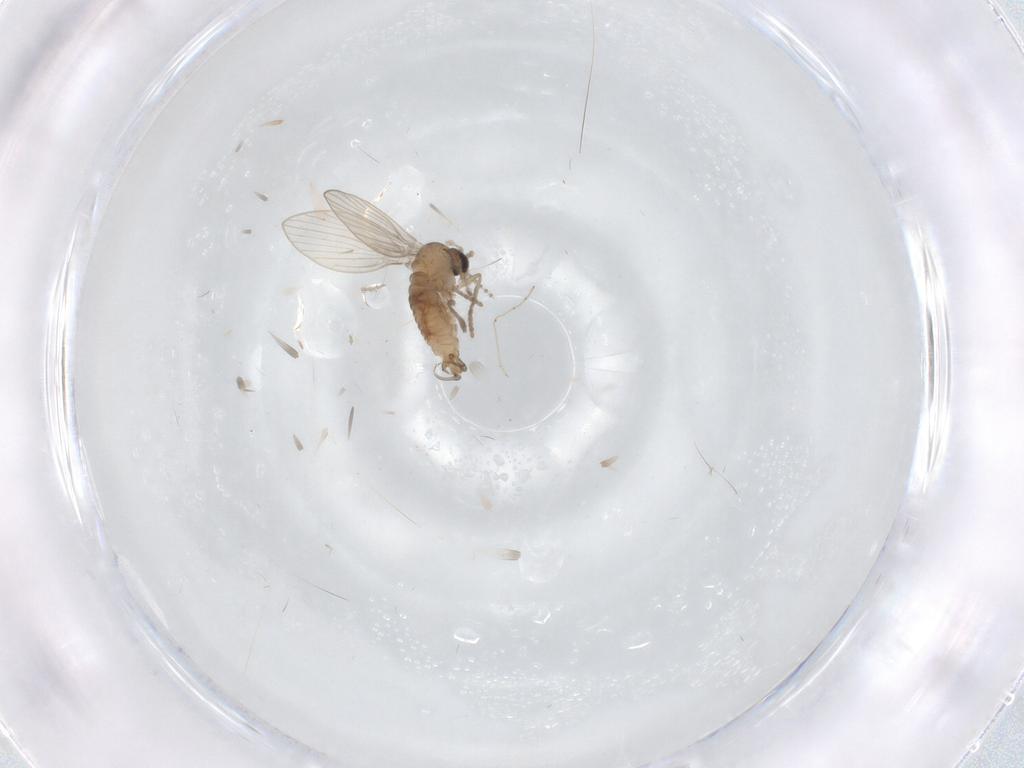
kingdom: Animalia
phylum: Arthropoda
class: Insecta
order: Diptera
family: Psychodidae
